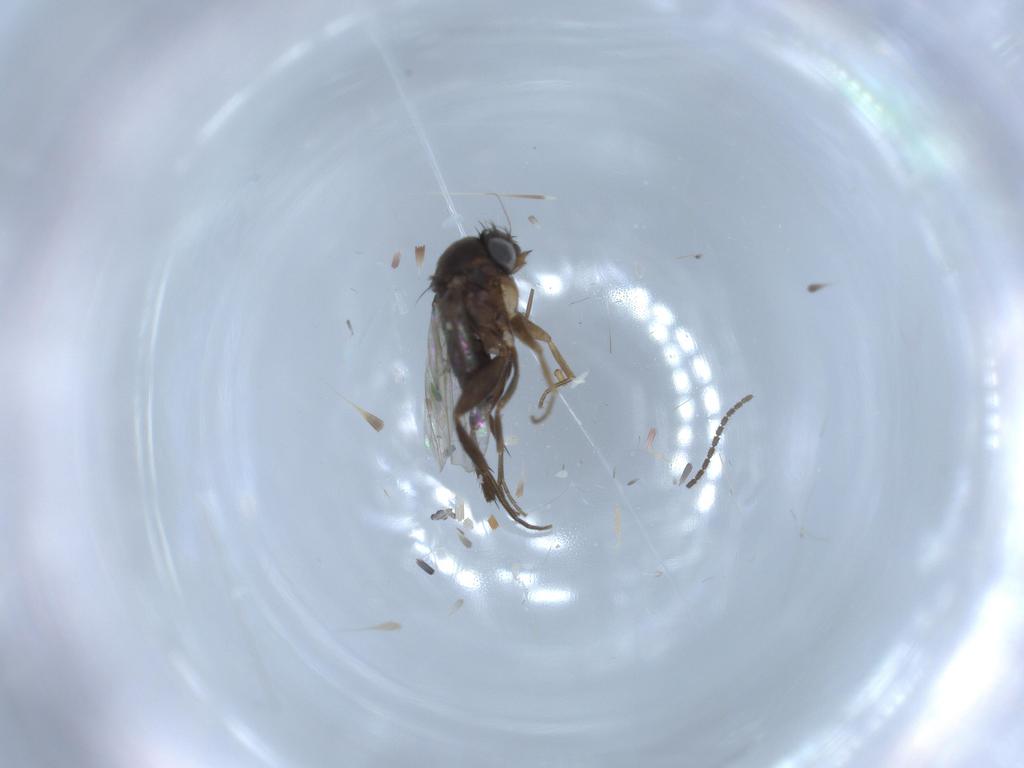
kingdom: Animalia
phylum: Arthropoda
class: Insecta
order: Diptera
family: Phoridae
